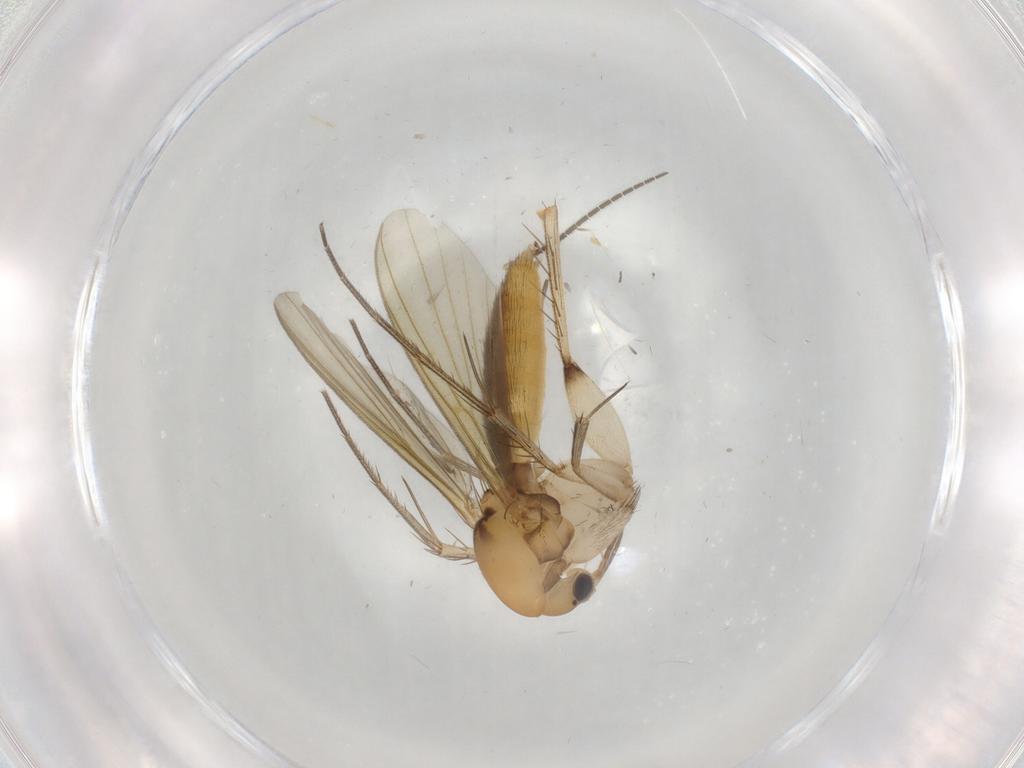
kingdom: Animalia
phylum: Arthropoda
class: Insecta
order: Diptera
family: Mycetophilidae
